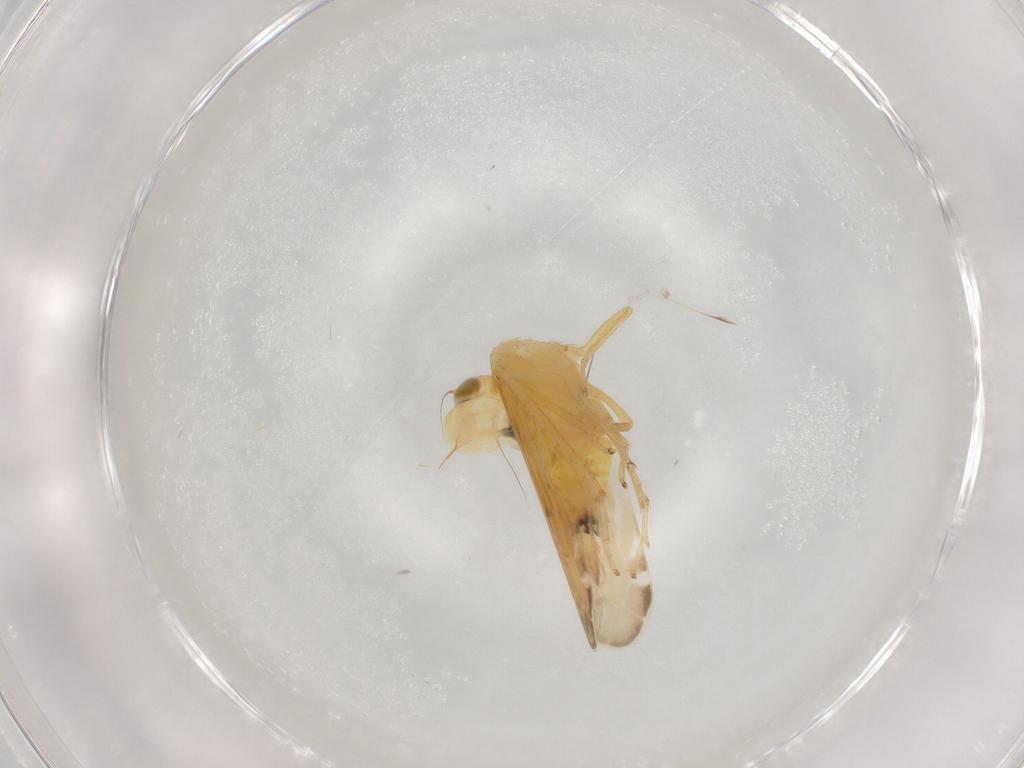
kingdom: Animalia
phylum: Arthropoda
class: Insecta
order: Hemiptera
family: Cicadellidae
